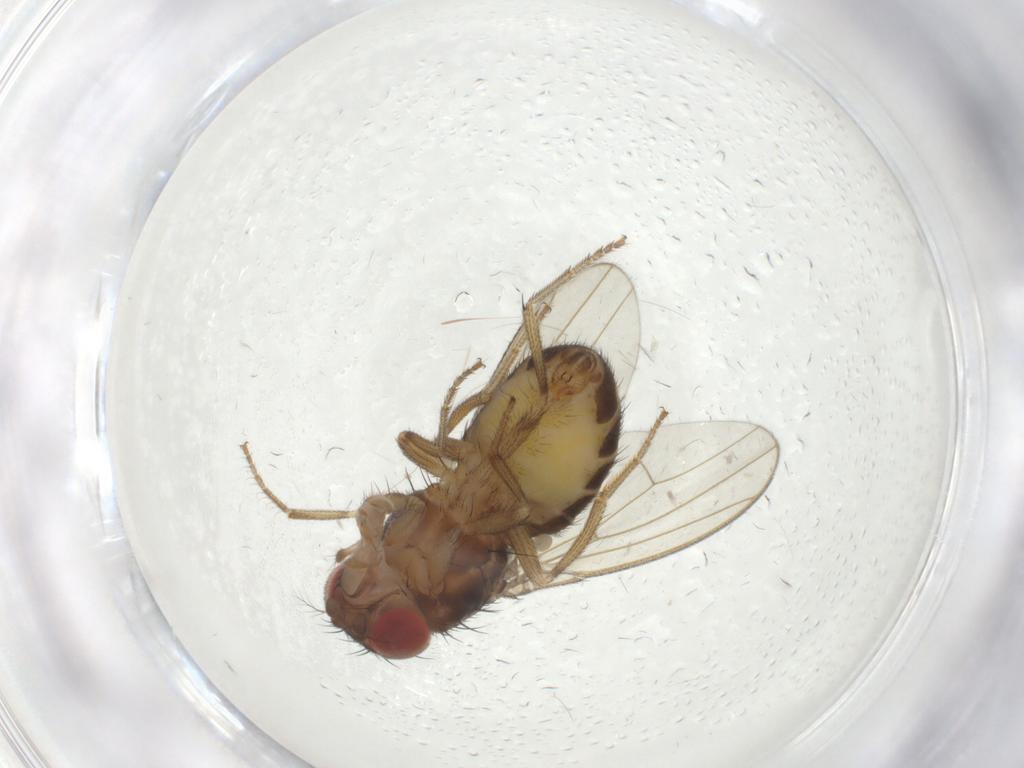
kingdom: Animalia
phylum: Arthropoda
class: Insecta
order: Diptera
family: Drosophilidae
